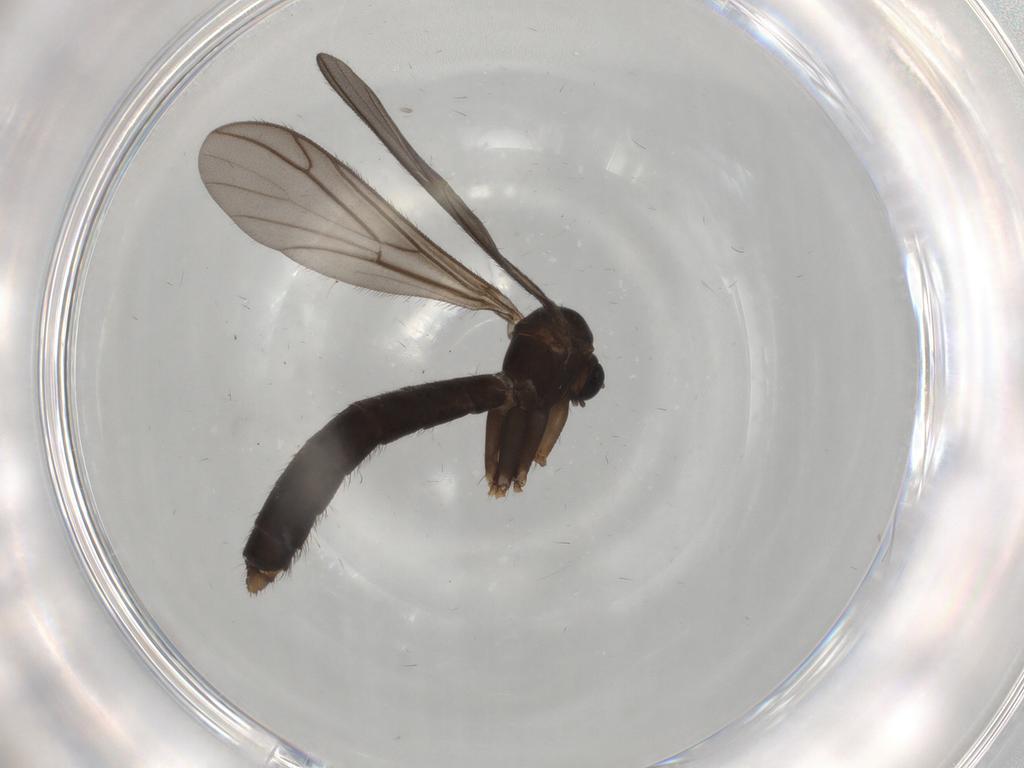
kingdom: Animalia
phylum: Arthropoda
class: Insecta
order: Diptera
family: Keroplatidae
